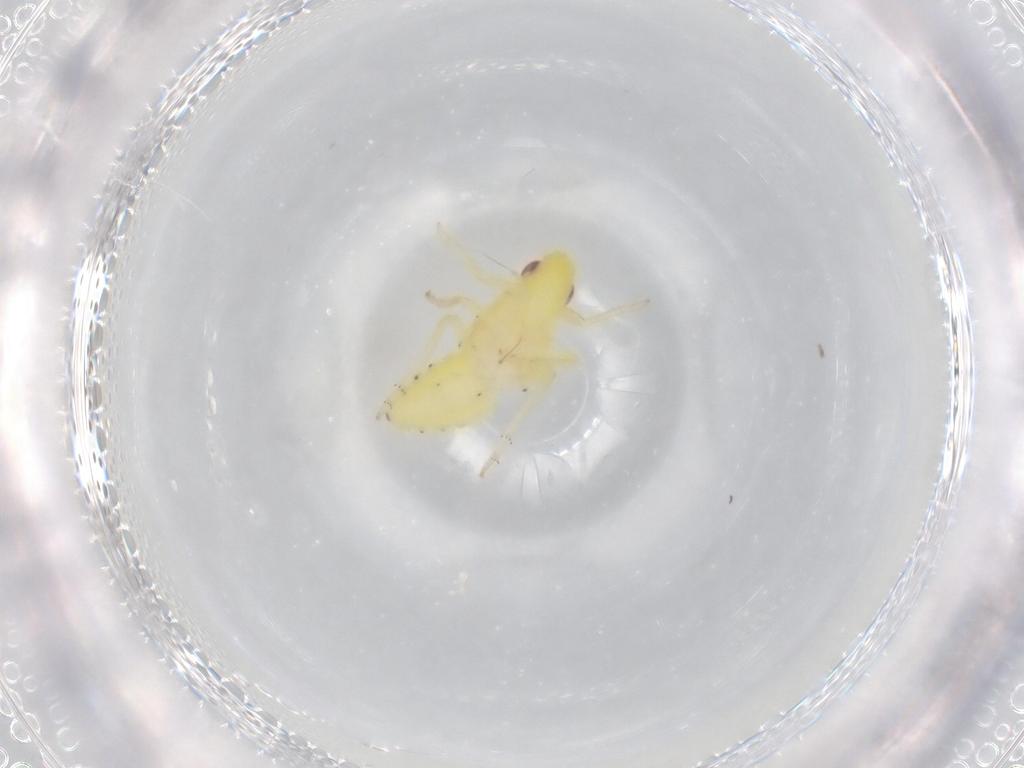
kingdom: Animalia
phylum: Arthropoda
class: Insecta
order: Hemiptera
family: Tropiduchidae
